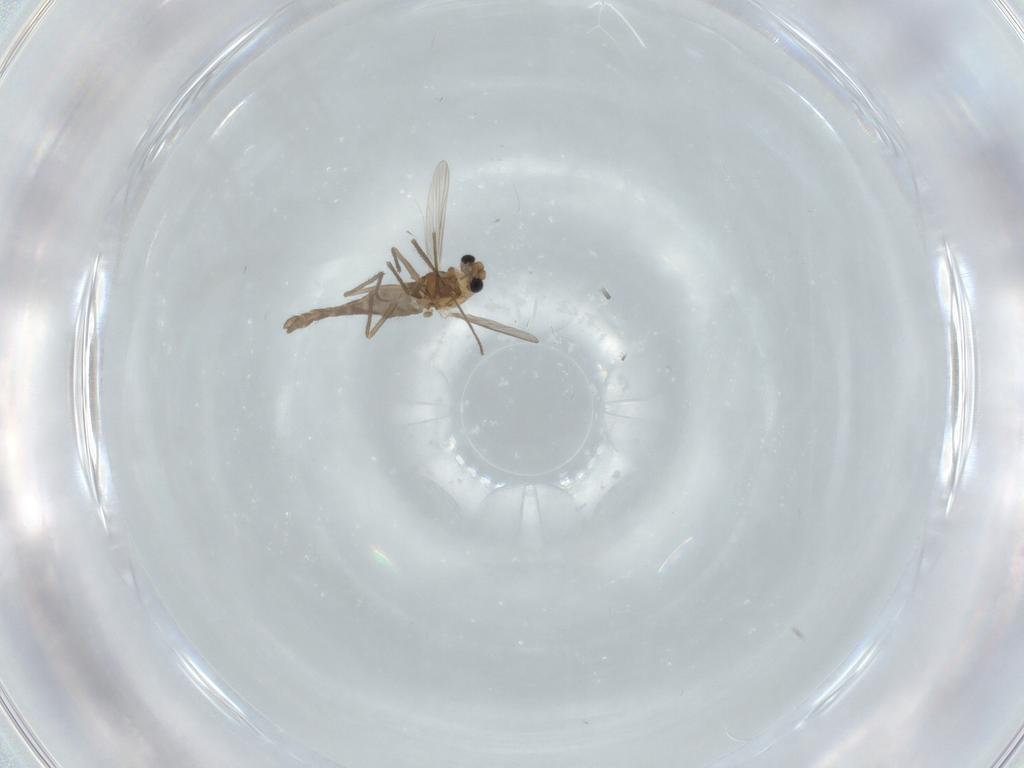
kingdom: Animalia
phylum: Arthropoda
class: Insecta
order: Diptera
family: Chironomidae
